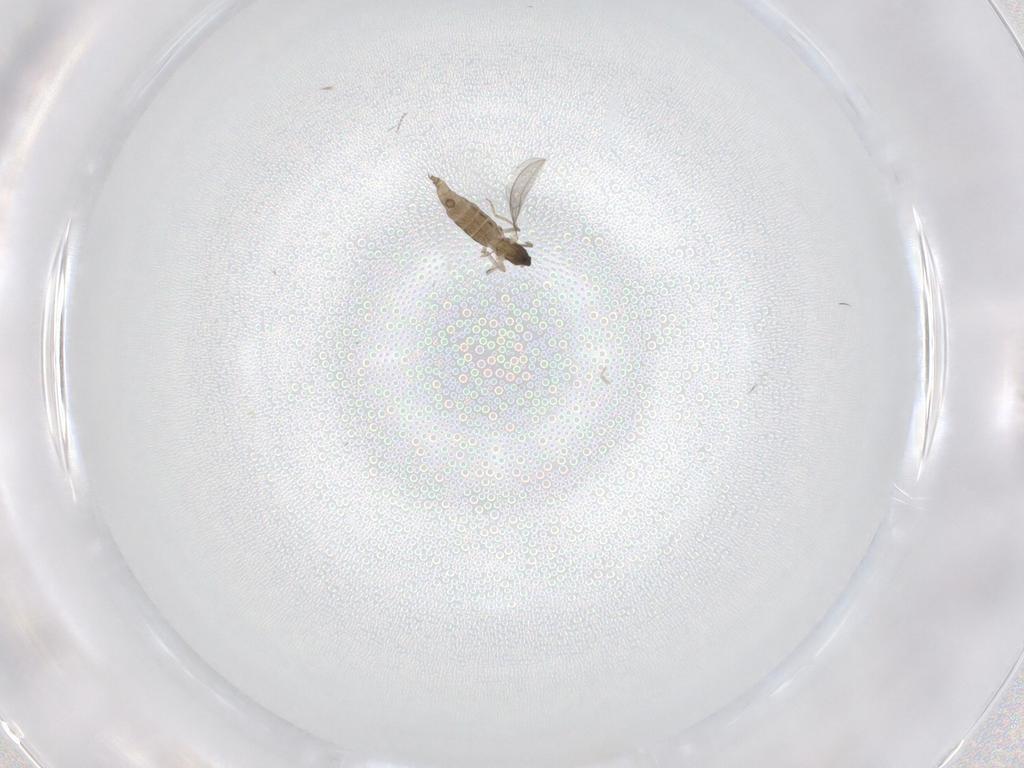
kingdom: Animalia
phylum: Arthropoda
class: Insecta
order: Diptera
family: Cecidomyiidae
